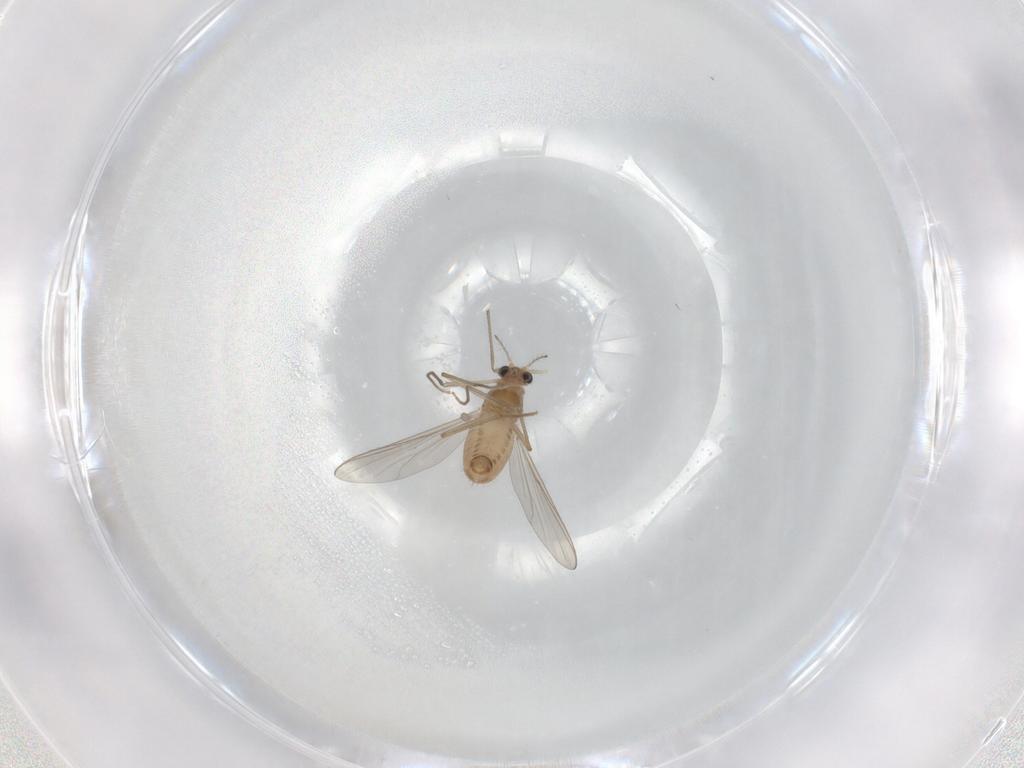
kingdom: Animalia
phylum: Arthropoda
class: Insecta
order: Diptera
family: Chironomidae
